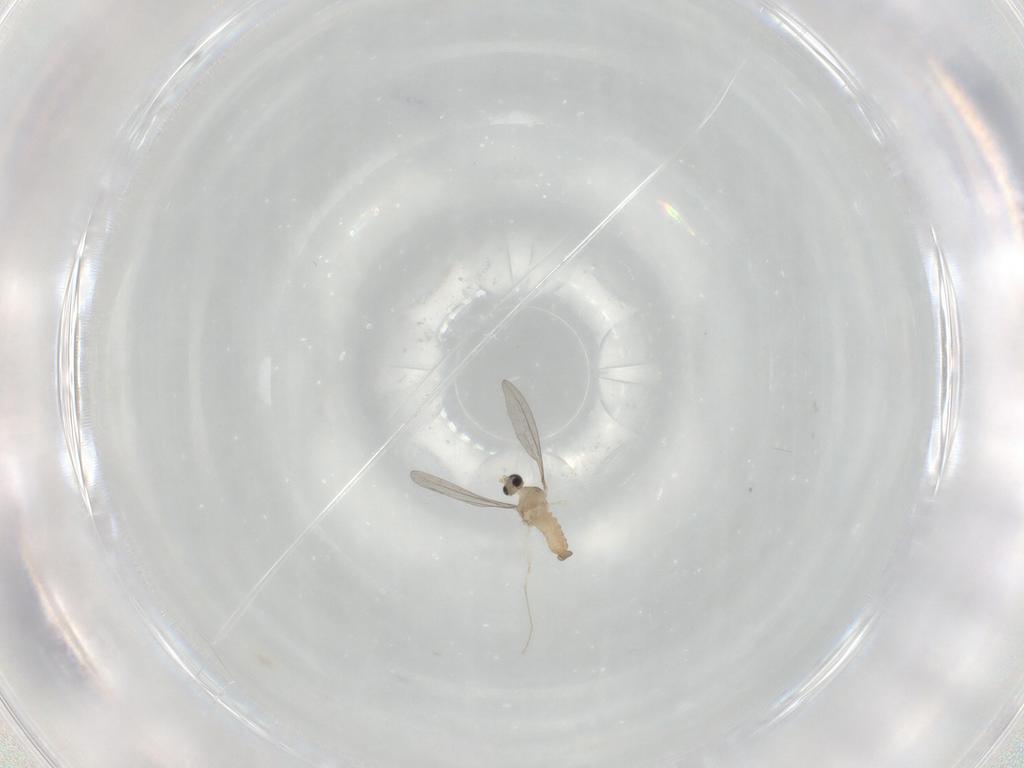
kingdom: Animalia
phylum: Arthropoda
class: Insecta
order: Diptera
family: Cecidomyiidae
